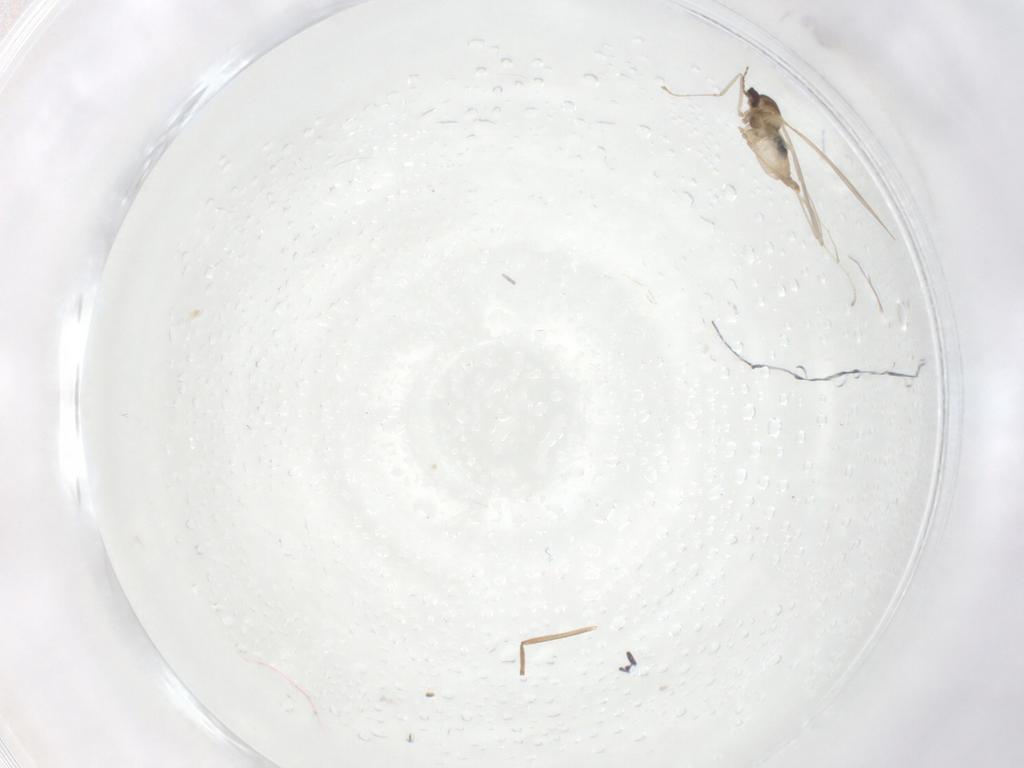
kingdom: Animalia
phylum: Arthropoda
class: Insecta
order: Diptera
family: Cecidomyiidae
